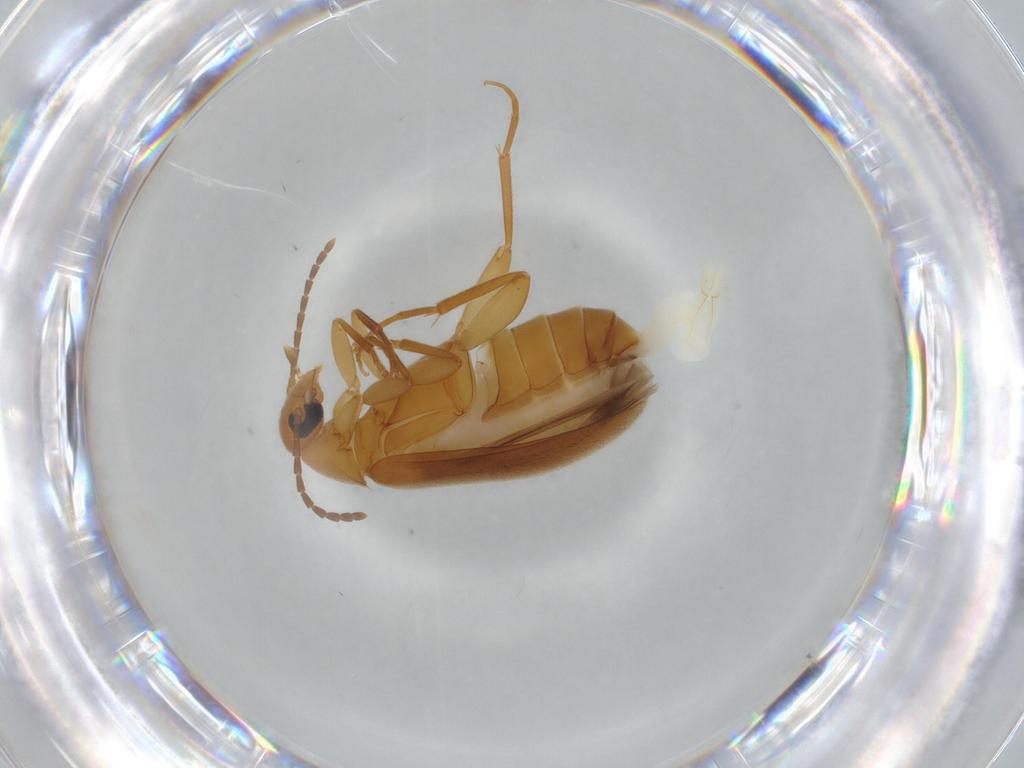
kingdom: Animalia
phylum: Arthropoda
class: Insecta
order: Coleoptera
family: Scraptiidae
